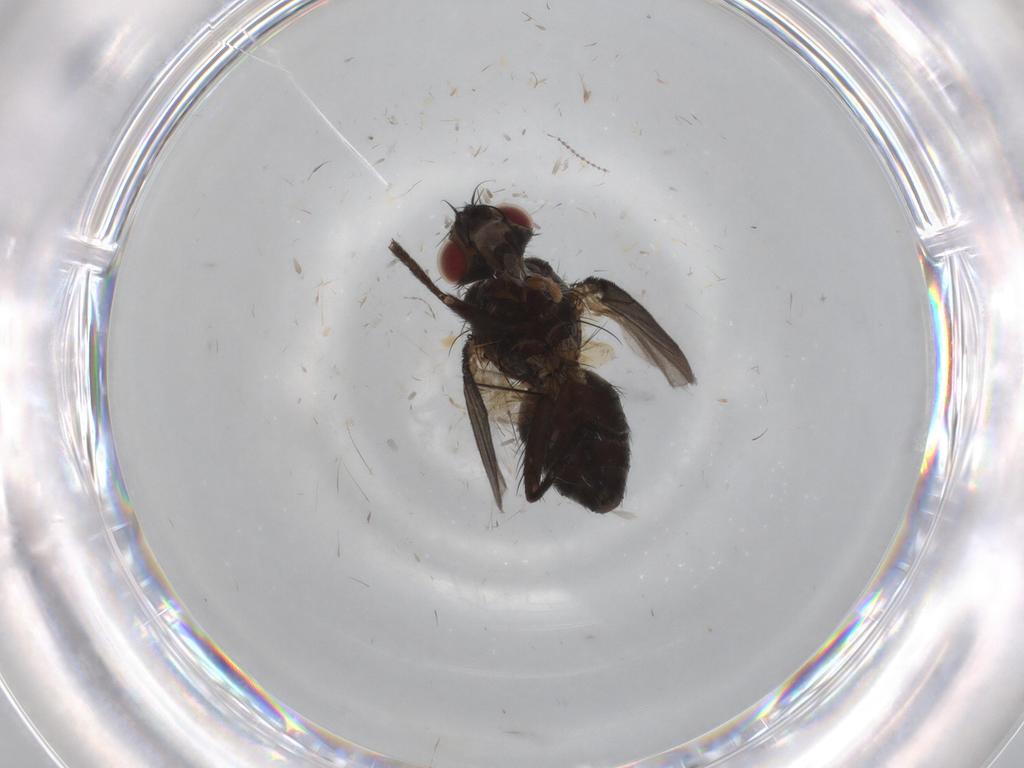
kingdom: Animalia
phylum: Arthropoda
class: Insecta
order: Diptera
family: Cecidomyiidae
